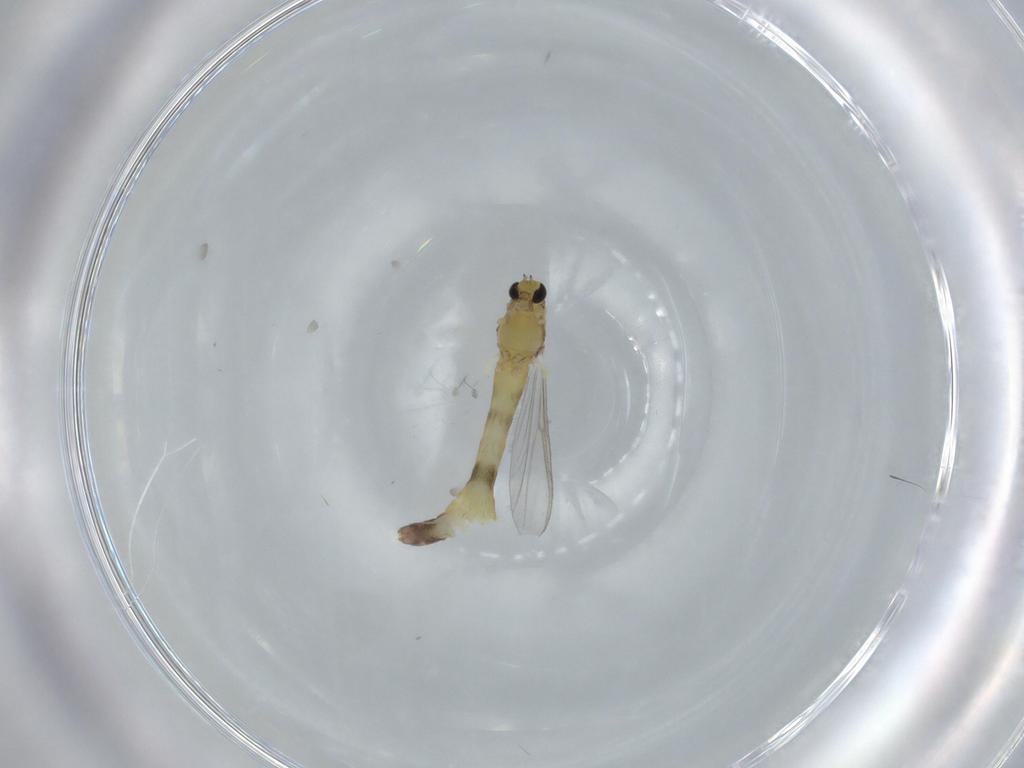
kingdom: Animalia
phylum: Arthropoda
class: Insecta
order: Diptera
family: Chironomidae
